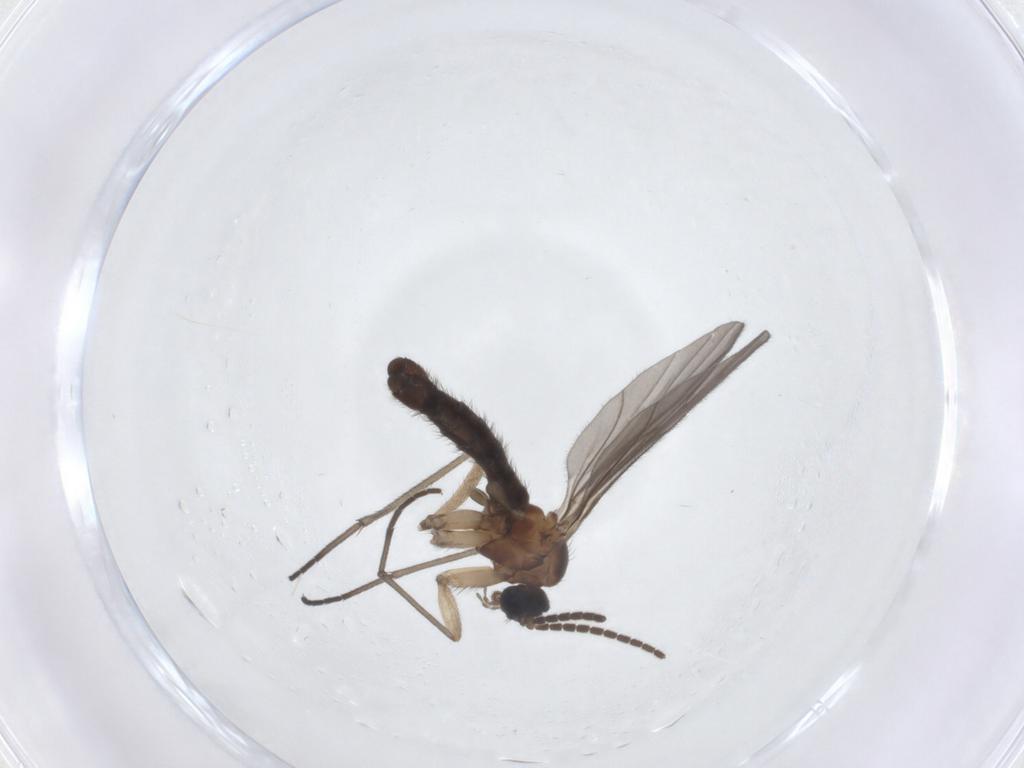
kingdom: Animalia
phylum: Arthropoda
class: Insecta
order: Diptera
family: Sciaridae
